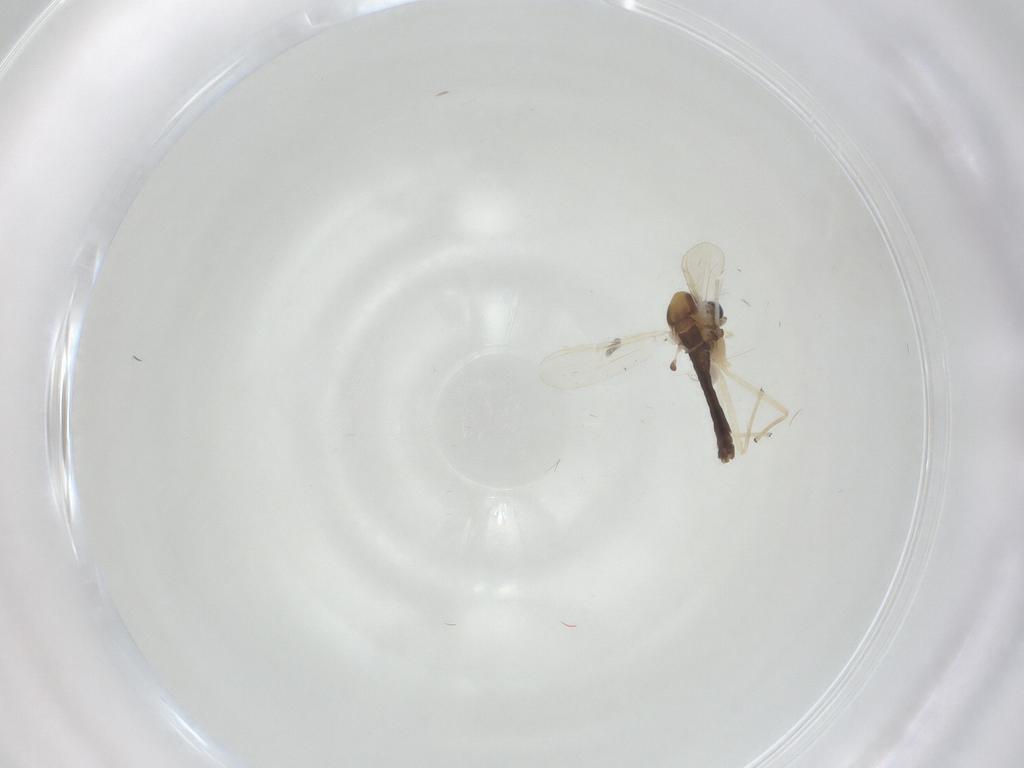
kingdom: Animalia
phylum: Arthropoda
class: Insecta
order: Diptera
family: Chironomidae
